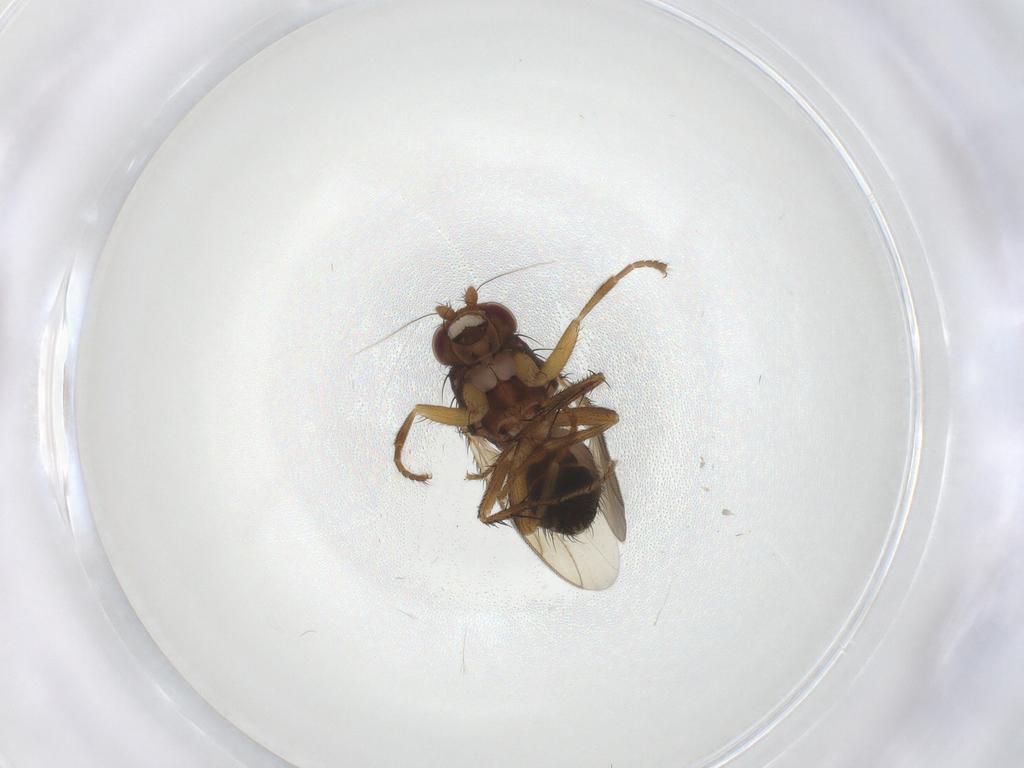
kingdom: Animalia
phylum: Arthropoda
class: Insecta
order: Diptera
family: Sphaeroceridae
